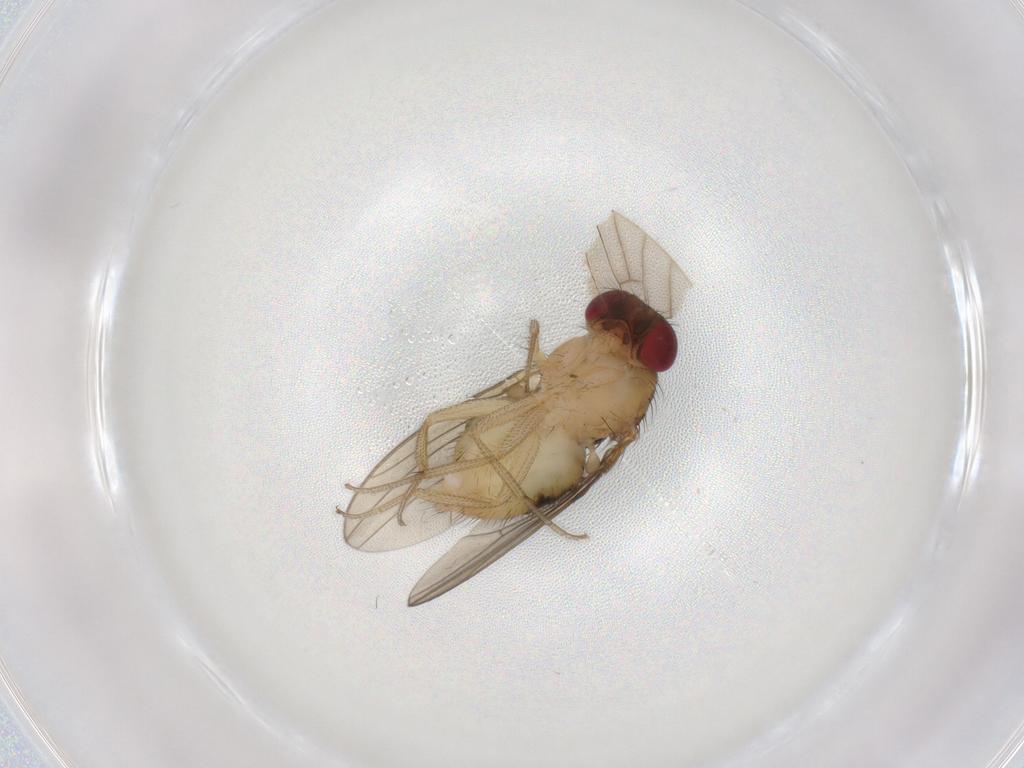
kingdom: Animalia
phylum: Arthropoda
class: Insecta
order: Diptera
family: Drosophilidae
